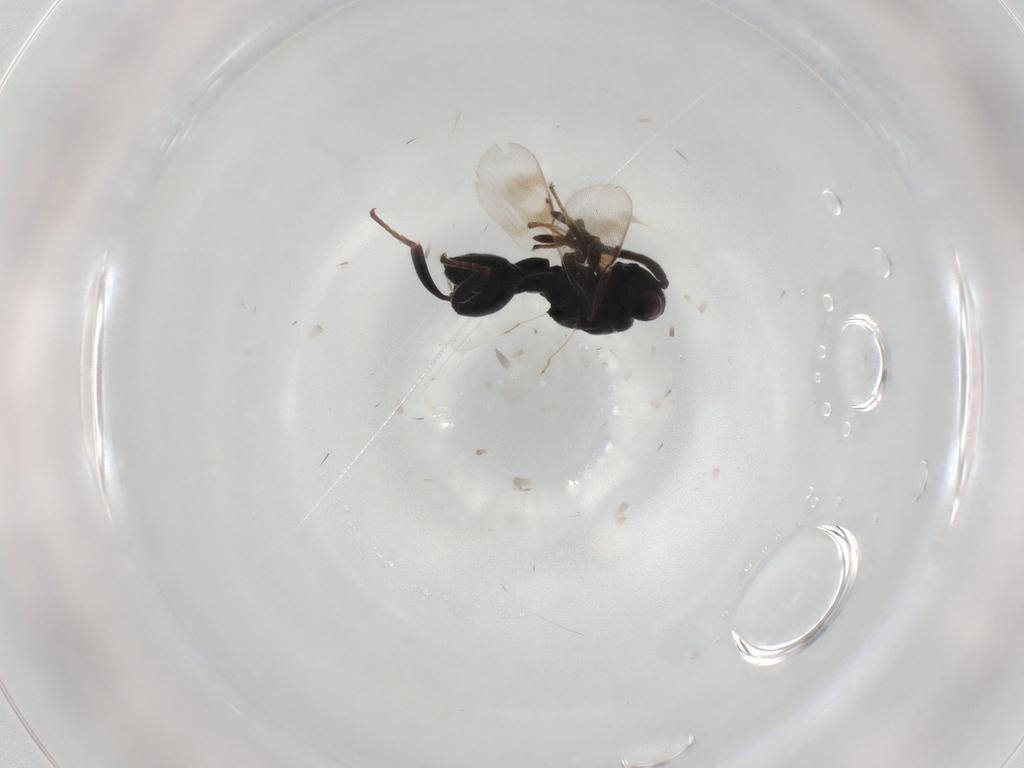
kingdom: Animalia
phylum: Arthropoda
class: Insecta
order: Hymenoptera
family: Chalcididae
